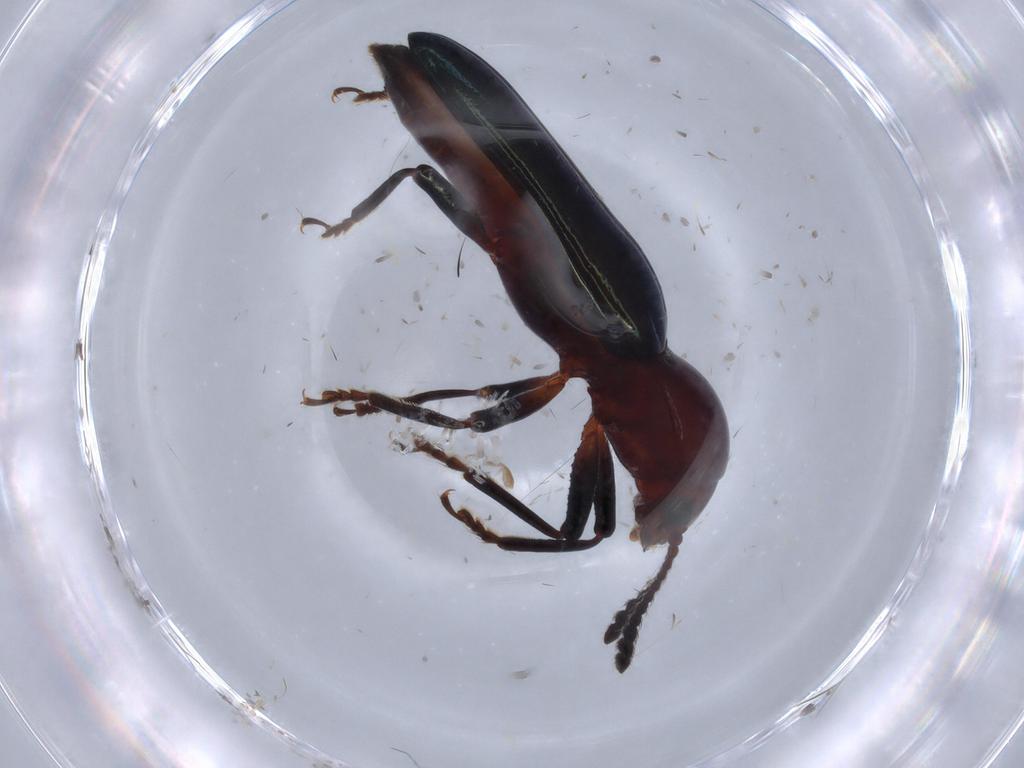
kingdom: Animalia
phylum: Arthropoda
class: Insecta
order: Coleoptera
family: Erotylidae
